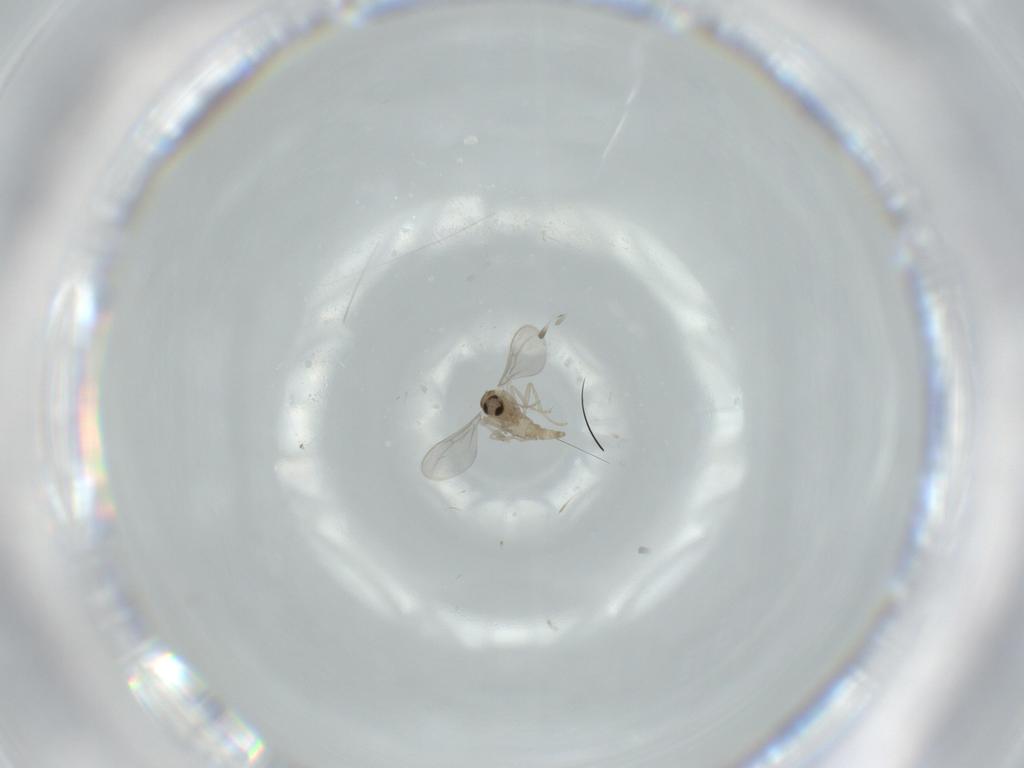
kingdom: Animalia
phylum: Arthropoda
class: Insecta
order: Diptera
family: Cecidomyiidae
